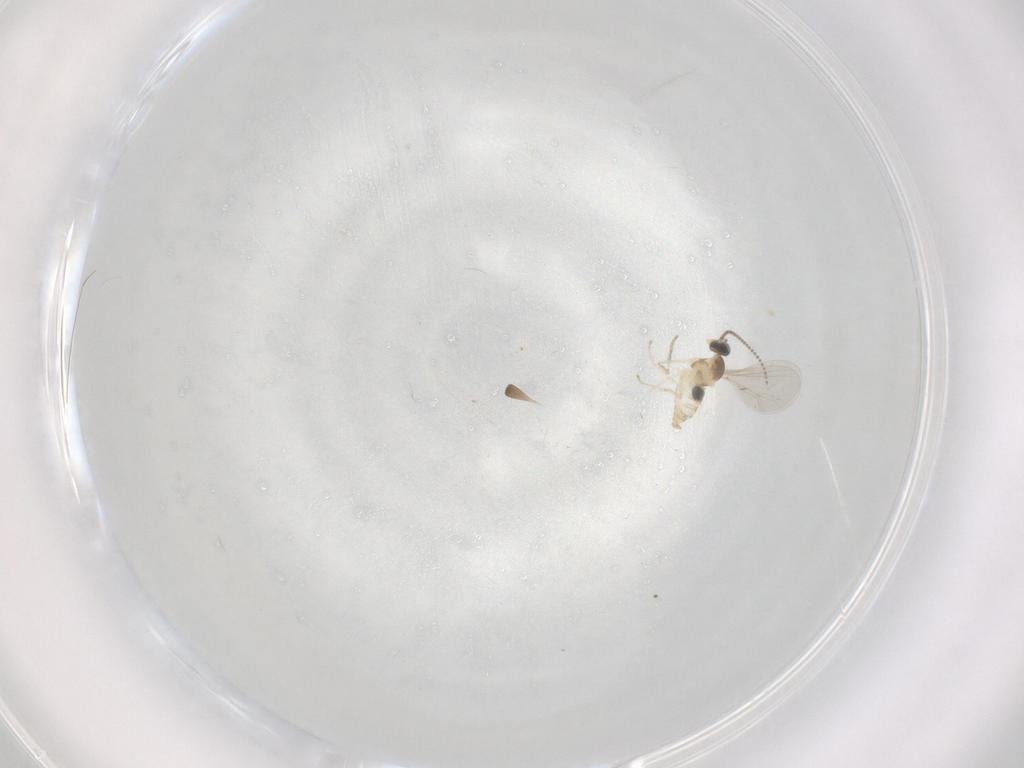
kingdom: Animalia
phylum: Arthropoda
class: Insecta
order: Diptera
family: Cecidomyiidae
